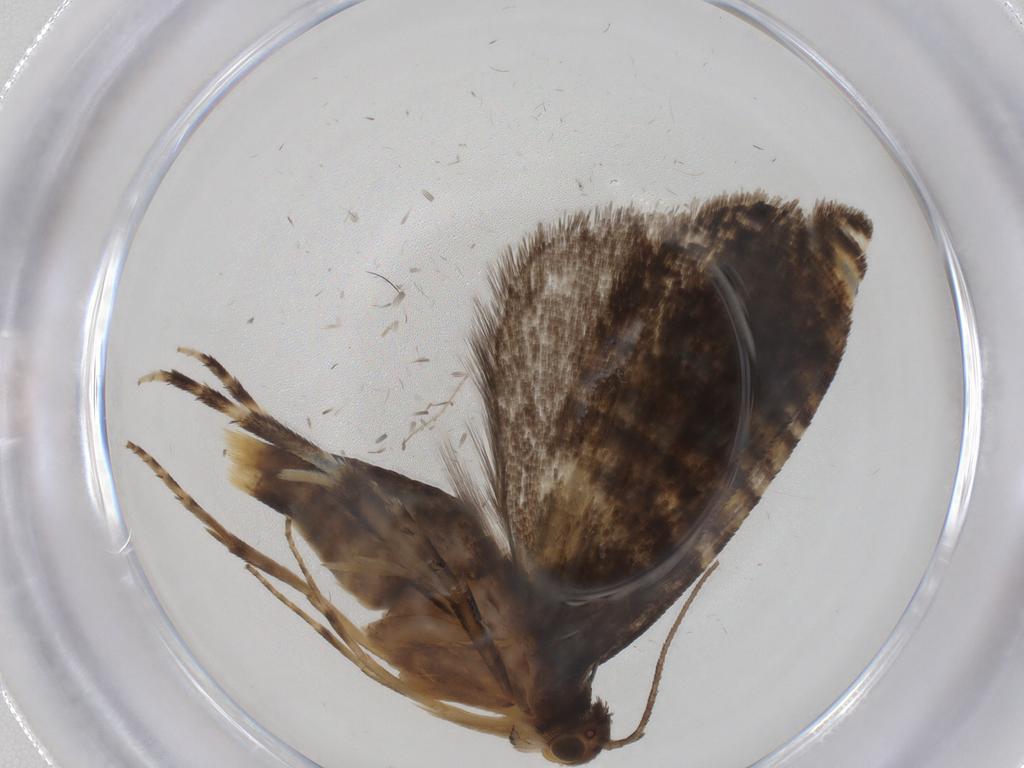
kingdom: Animalia
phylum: Arthropoda
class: Insecta
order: Lepidoptera
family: Glyphipterigidae
